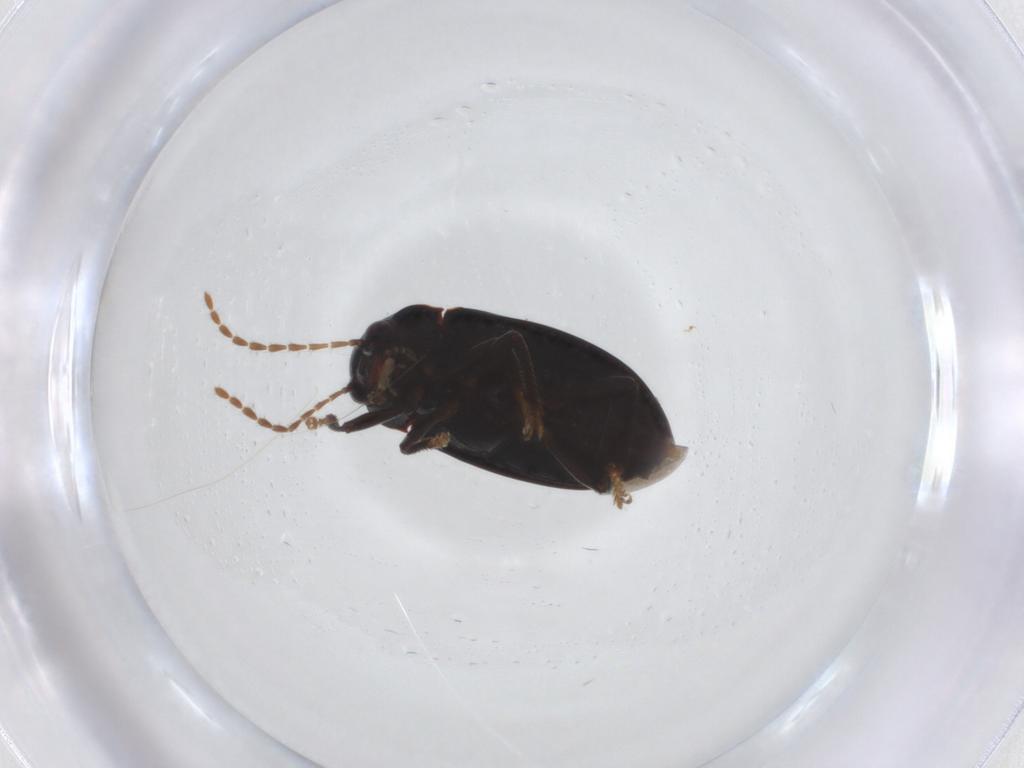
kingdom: Animalia
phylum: Arthropoda
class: Insecta
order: Coleoptera
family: Ptilodactylidae
